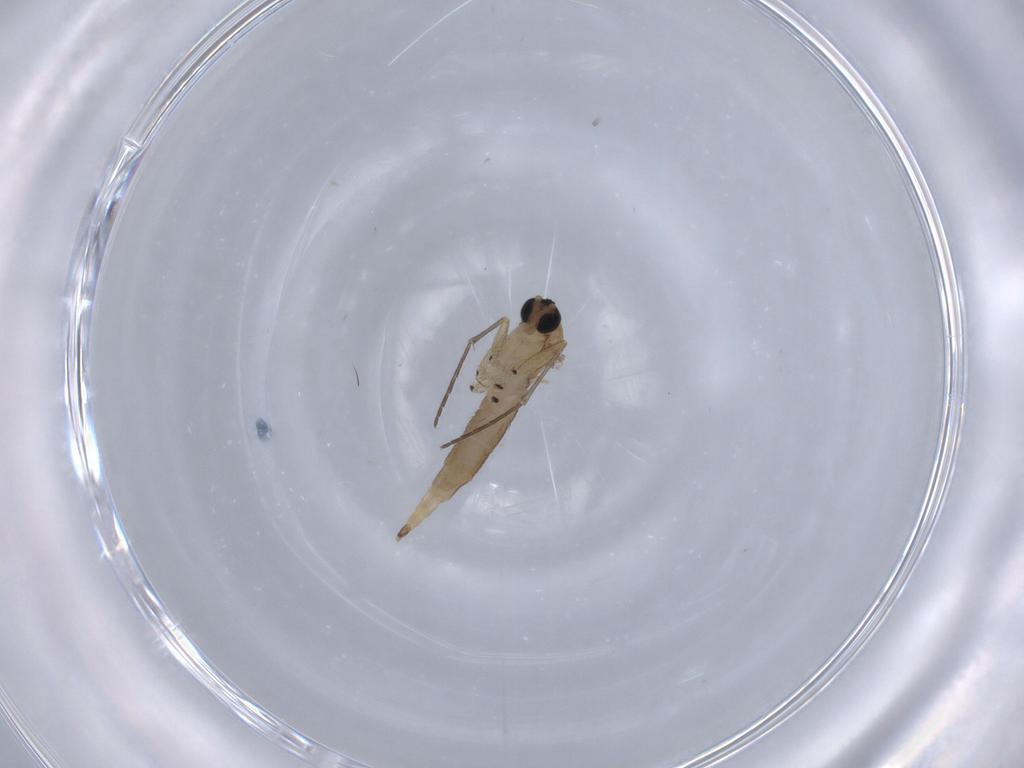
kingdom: Animalia
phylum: Arthropoda
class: Insecta
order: Diptera
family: Sciaridae
